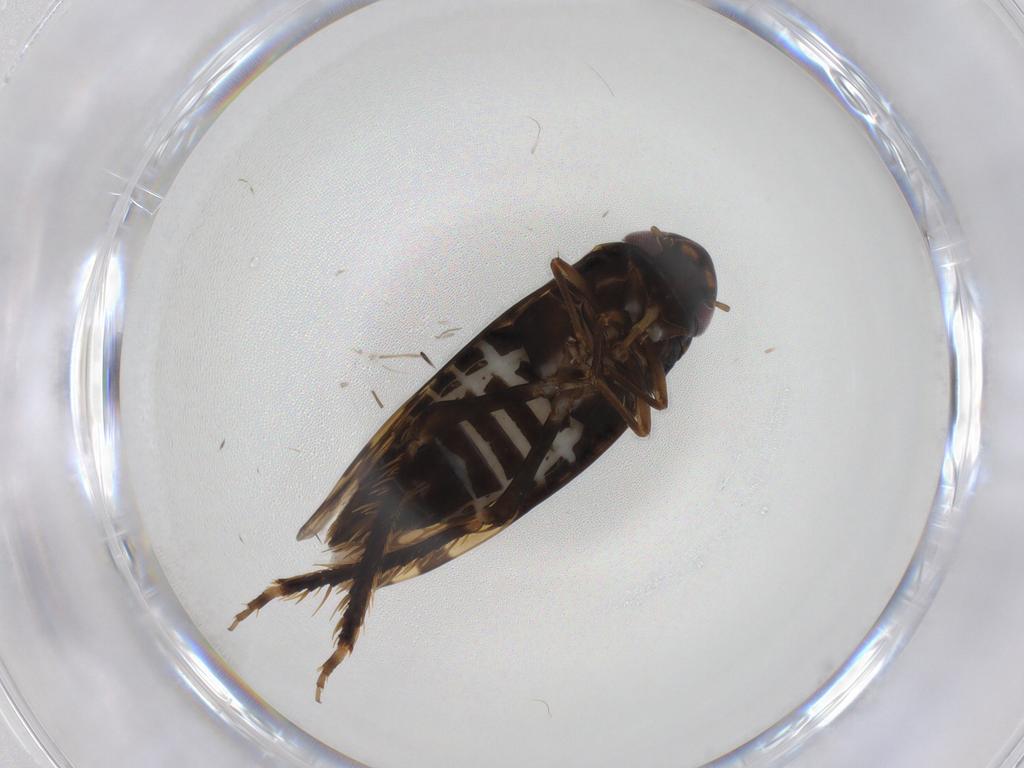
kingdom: Animalia
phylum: Arthropoda
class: Insecta
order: Hemiptera
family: Cicadellidae
